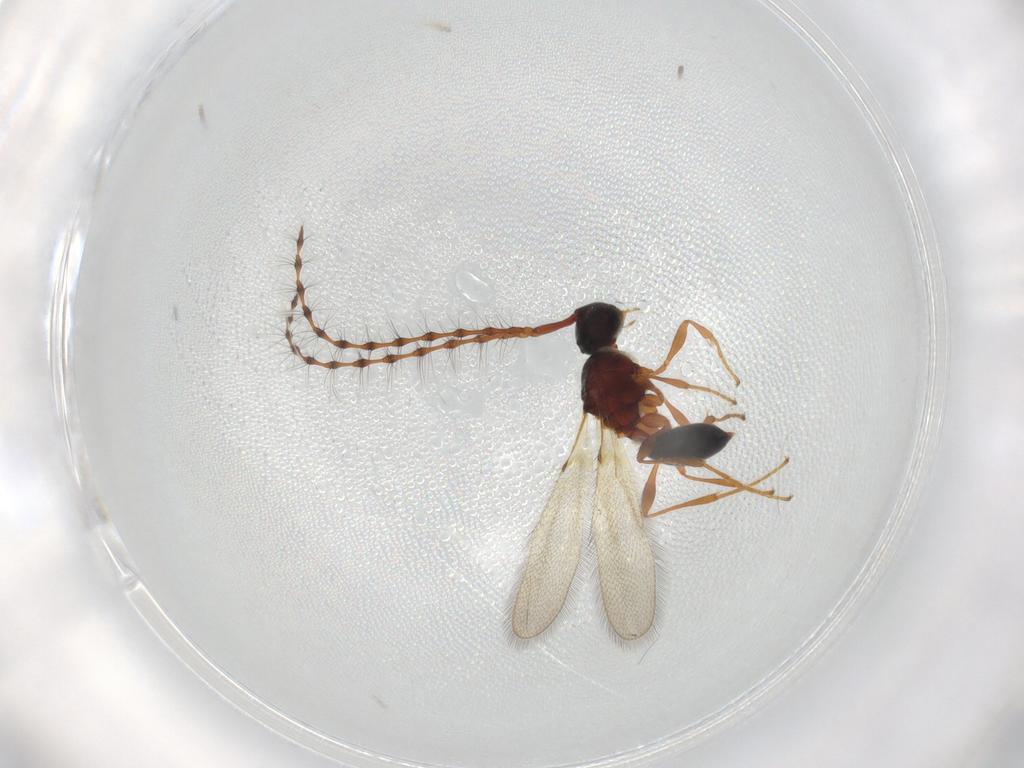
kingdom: Animalia
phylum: Arthropoda
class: Insecta
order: Hymenoptera
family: Diapriidae
